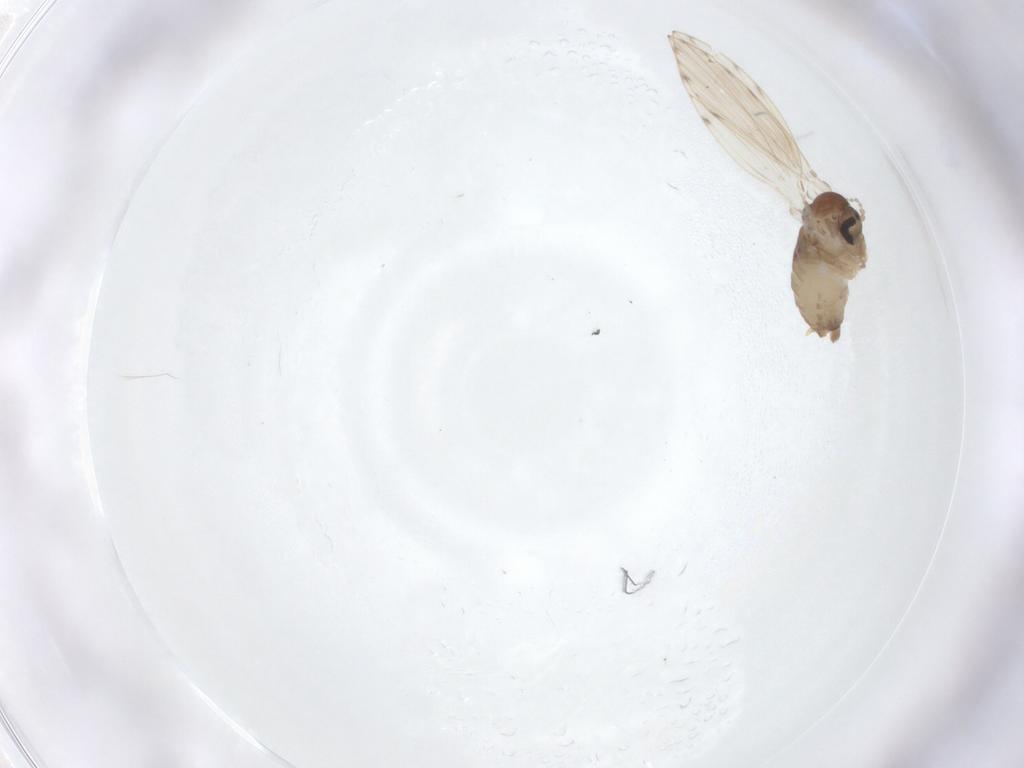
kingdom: Animalia
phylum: Arthropoda
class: Insecta
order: Diptera
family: Psychodidae
